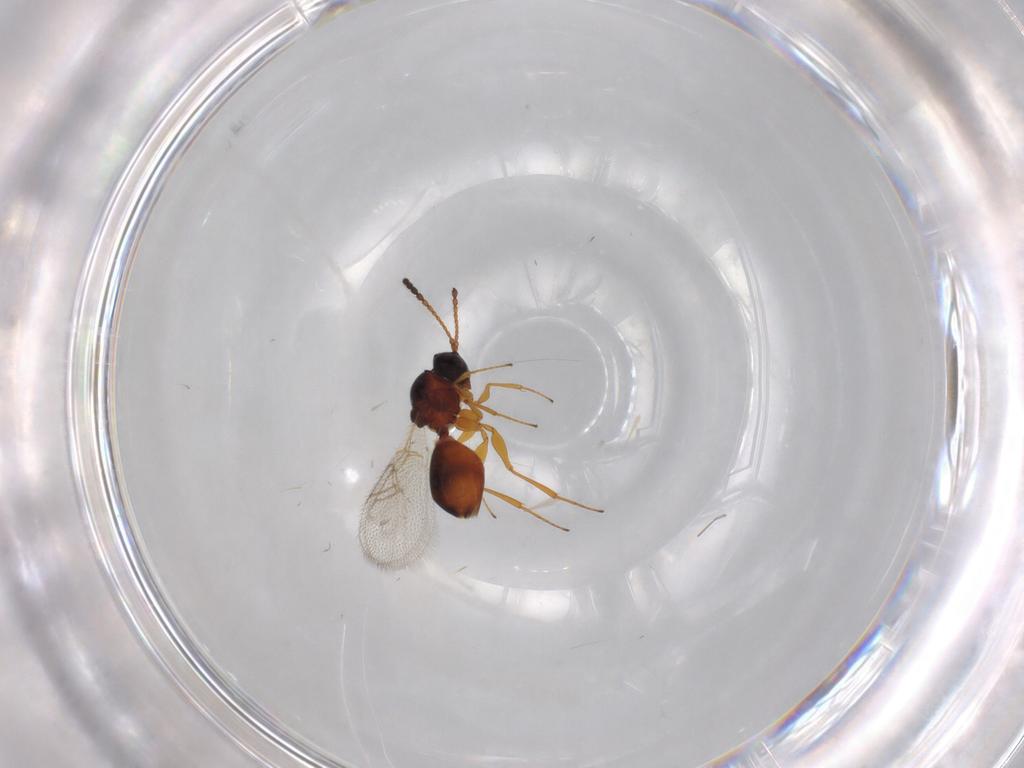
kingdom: Animalia
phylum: Arthropoda
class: Insecta
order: Hymenoptera
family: Figitidae
